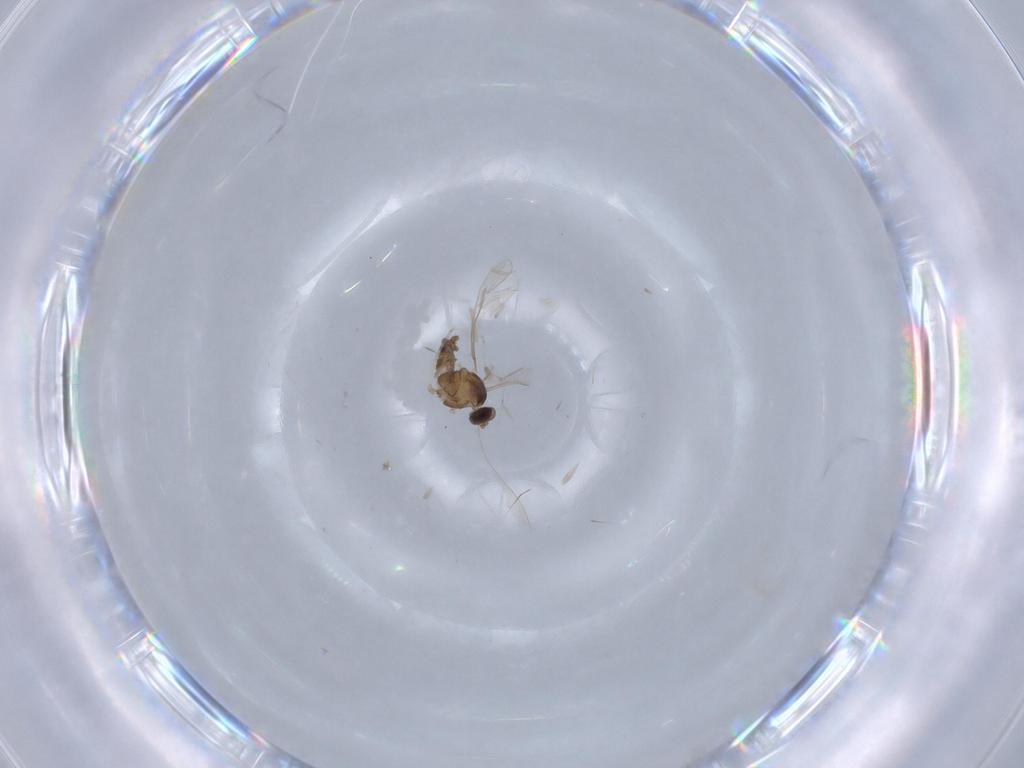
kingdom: Animalia
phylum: Arthropoda
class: Insecta
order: Diptera
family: Cecidomyiidae
